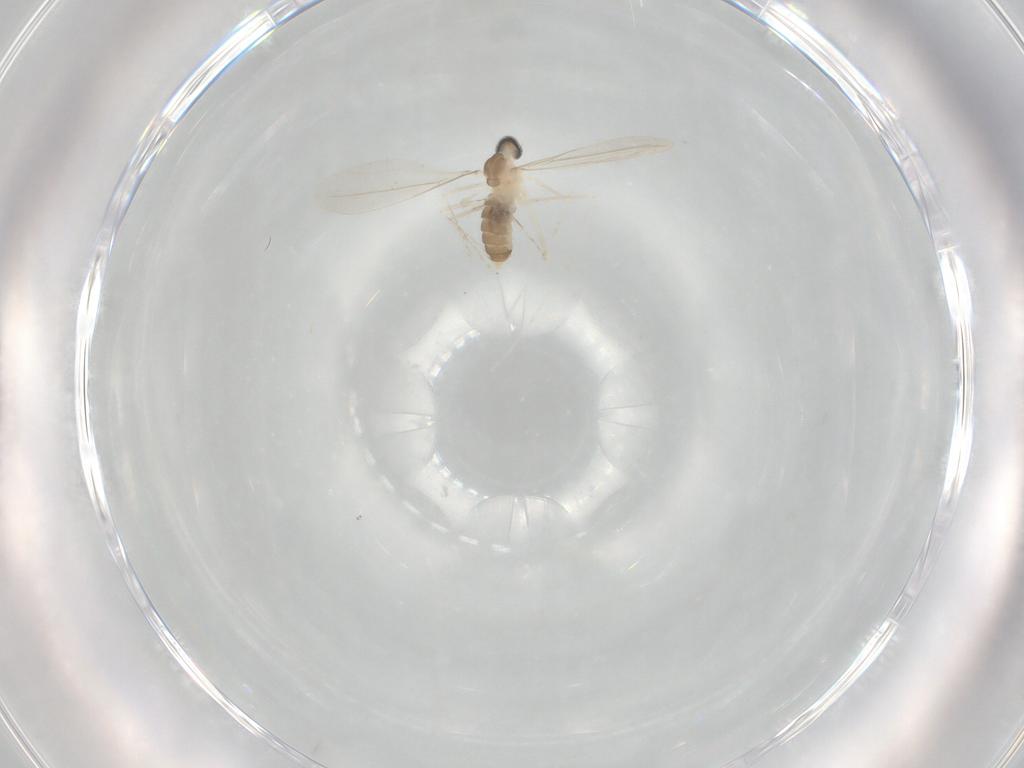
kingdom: Animalia
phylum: Arthropoda
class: Insecta
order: Diptera
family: Cecidomyiidae
